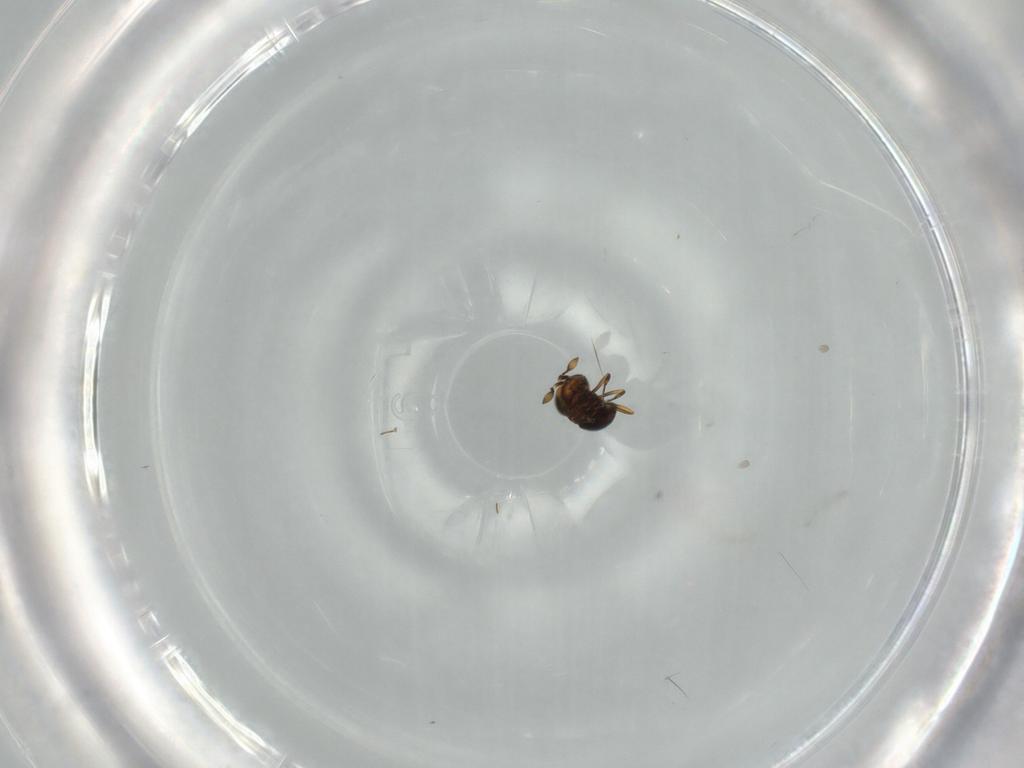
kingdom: Animalia
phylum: Arthropoda
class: Insecta
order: Hymenoptera
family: Scelionidae
